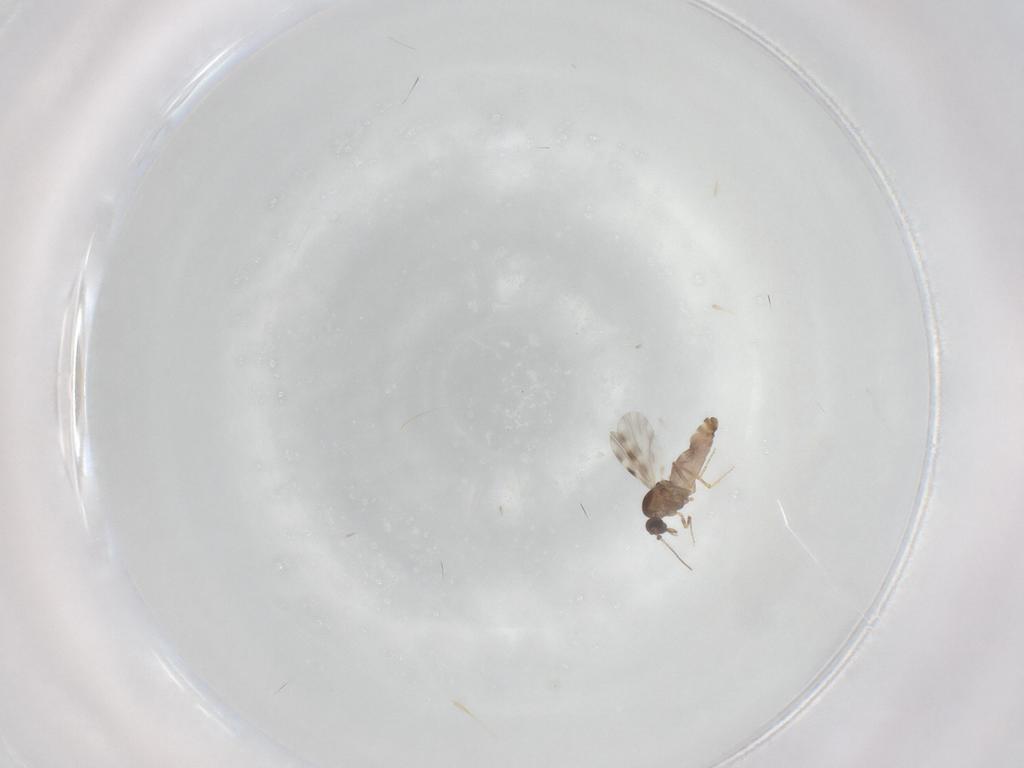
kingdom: Animalia
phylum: Arthropoda
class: Insecta
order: Diptera
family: Ceratopogonidae
